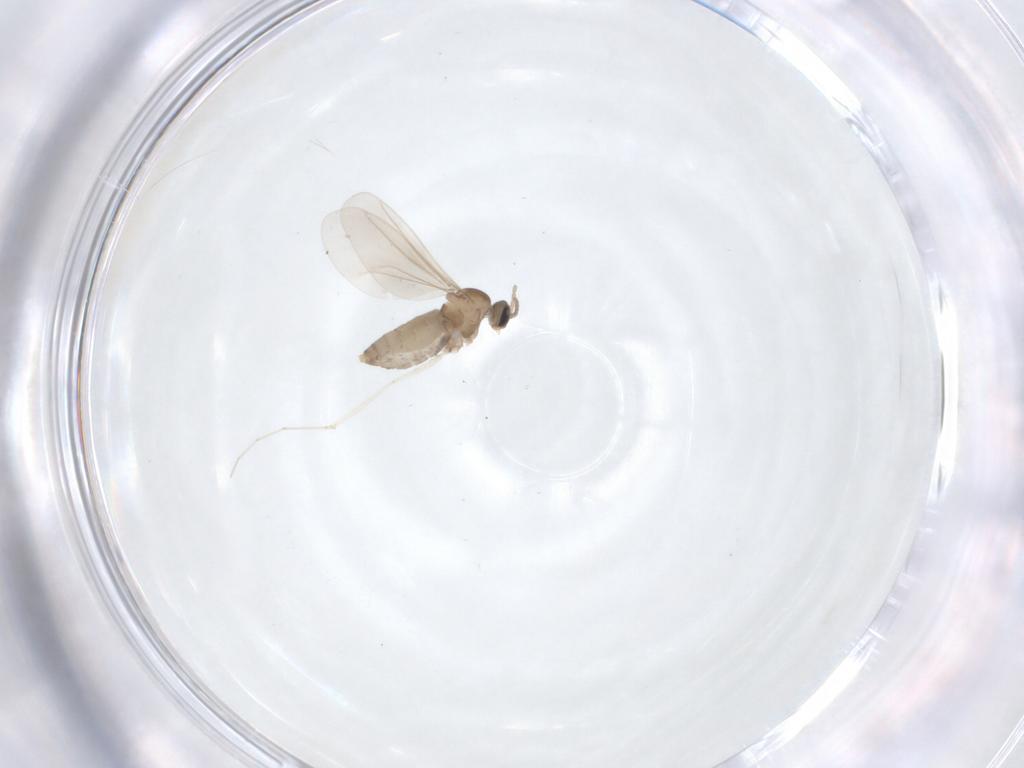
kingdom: Animalia
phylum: Arthropoda
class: Insecta
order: Diptera
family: Cecidomyiidae
